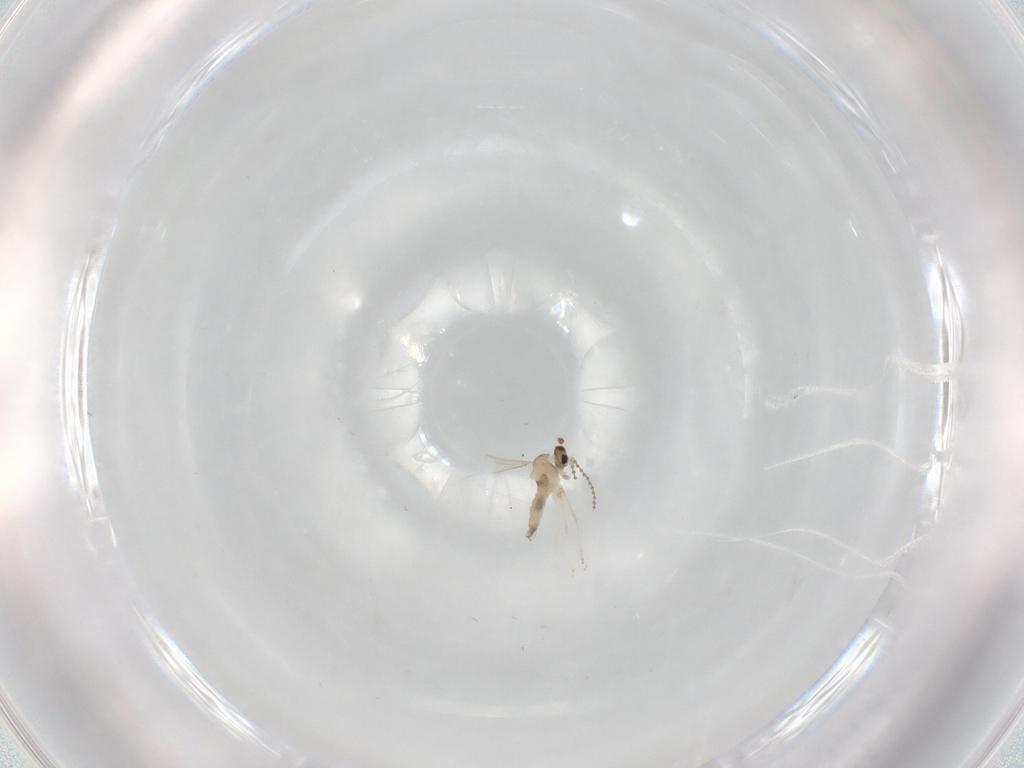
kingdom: Animalia
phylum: Arthropoda
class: Insecta
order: Diptera
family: Cecidomyiidae
